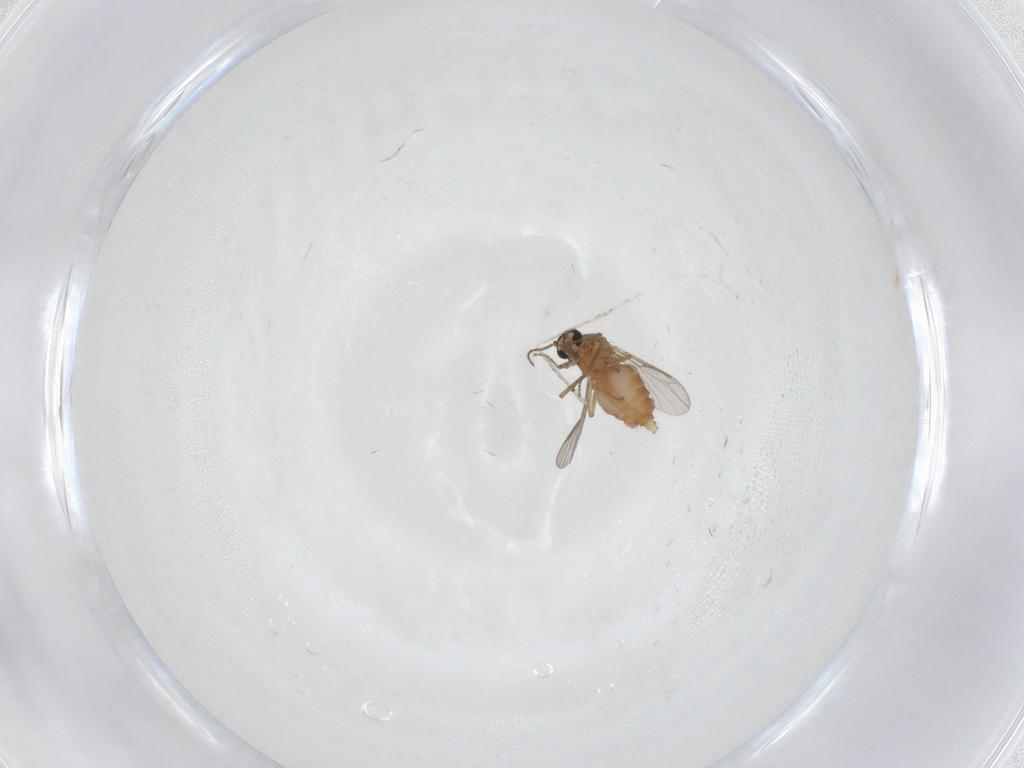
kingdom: Animalia
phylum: Arthropoda
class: Insecta
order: Diptera
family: Ceratopogonidae
